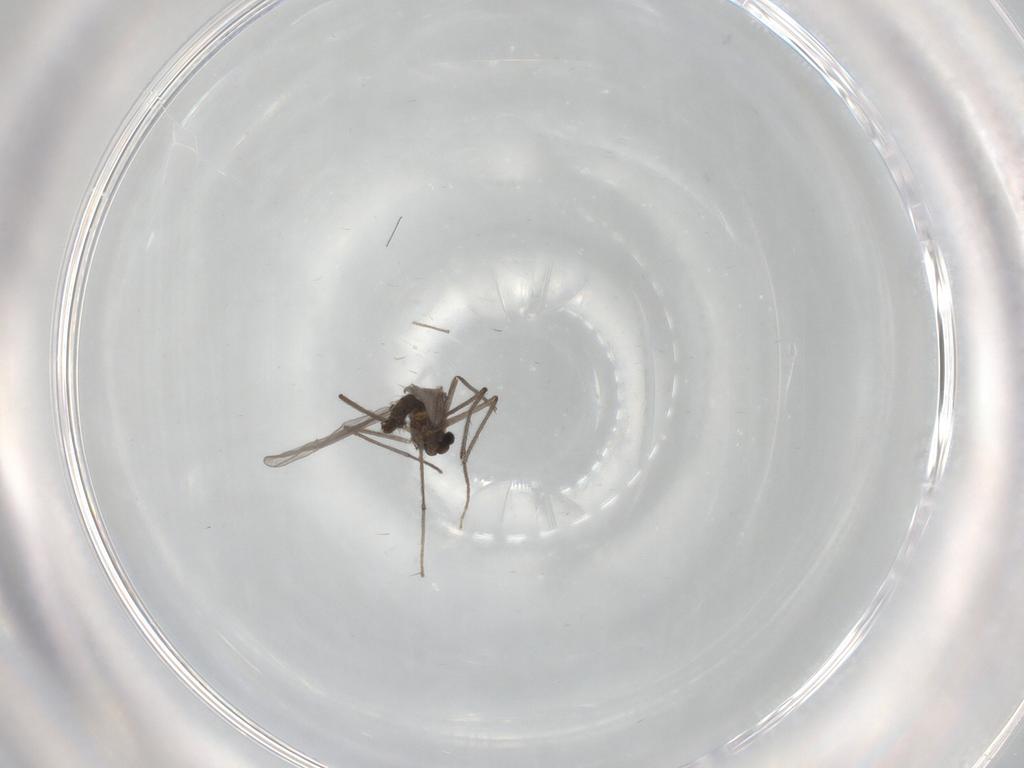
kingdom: Animalia
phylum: Arthropoda
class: Insecta
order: Diptera
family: Chironomidae
